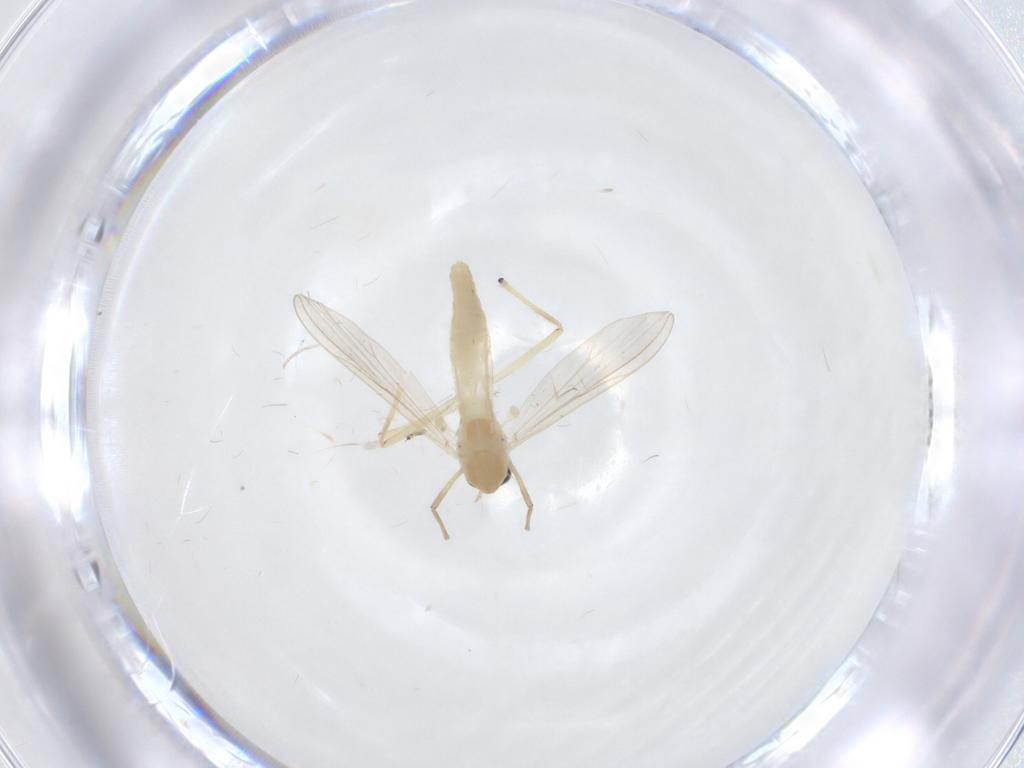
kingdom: Animalia
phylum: Arthropoda
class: Insecta
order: Diptera
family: Chironomidae
